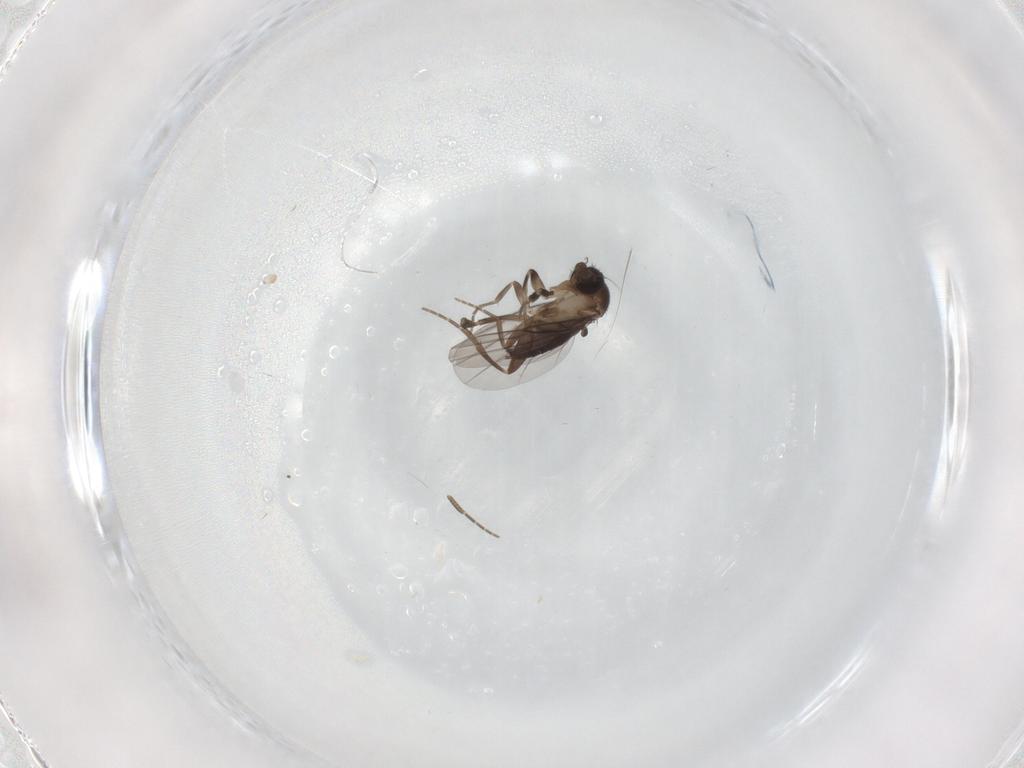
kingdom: Animalia
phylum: Arthropoda
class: Insecta
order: Diptera
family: Phoridae
